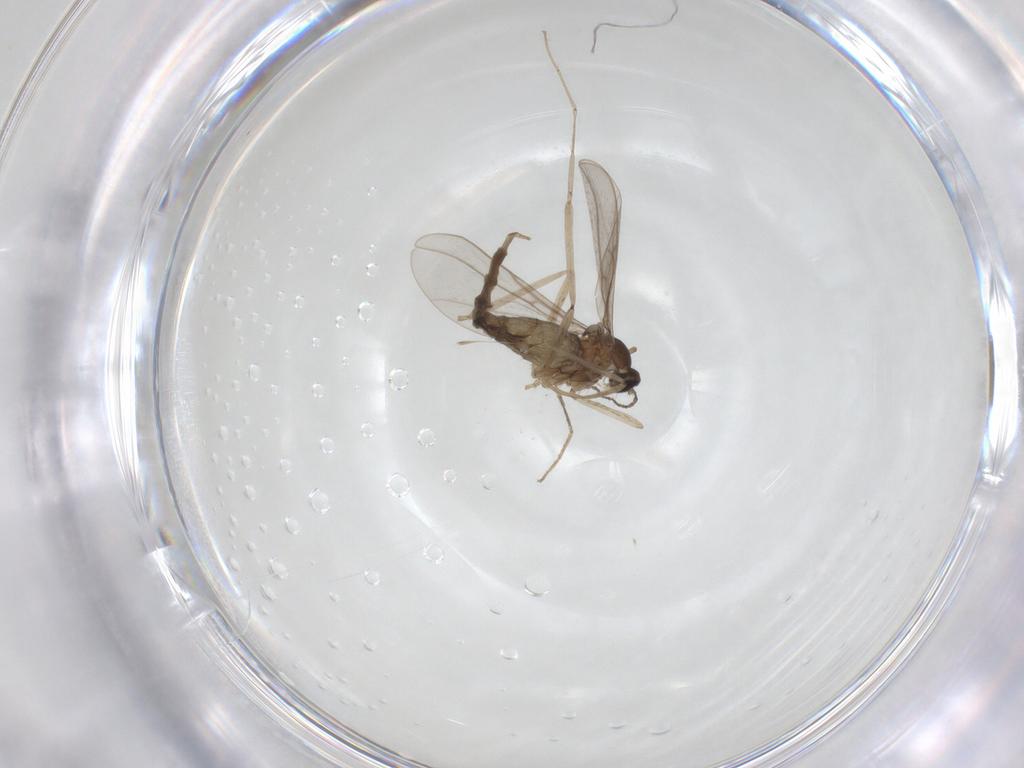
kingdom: Animalia
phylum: Arthropoda
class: Insecta
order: Diptera
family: Cecidomyiidae
